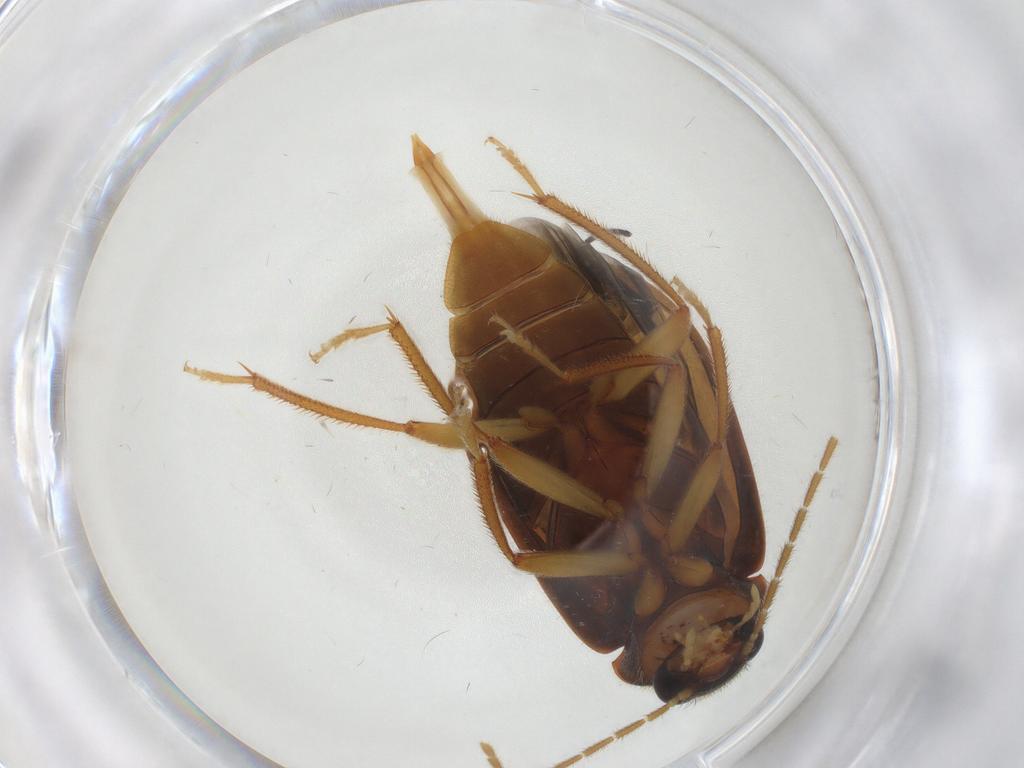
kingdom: Animalia
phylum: Arthropoda
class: Insecta
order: Coleoptera
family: Ptilodactylidae
